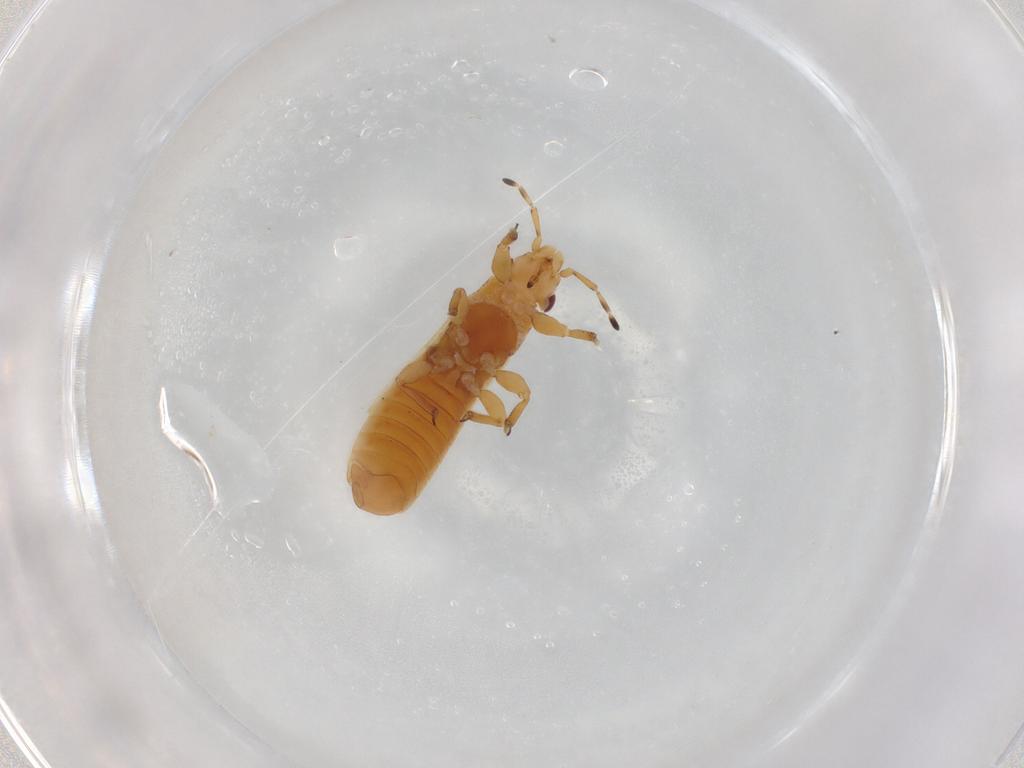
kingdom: Animalia
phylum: Arthropoda
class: Insecta
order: Hemiptera
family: Thaumastocoridae
